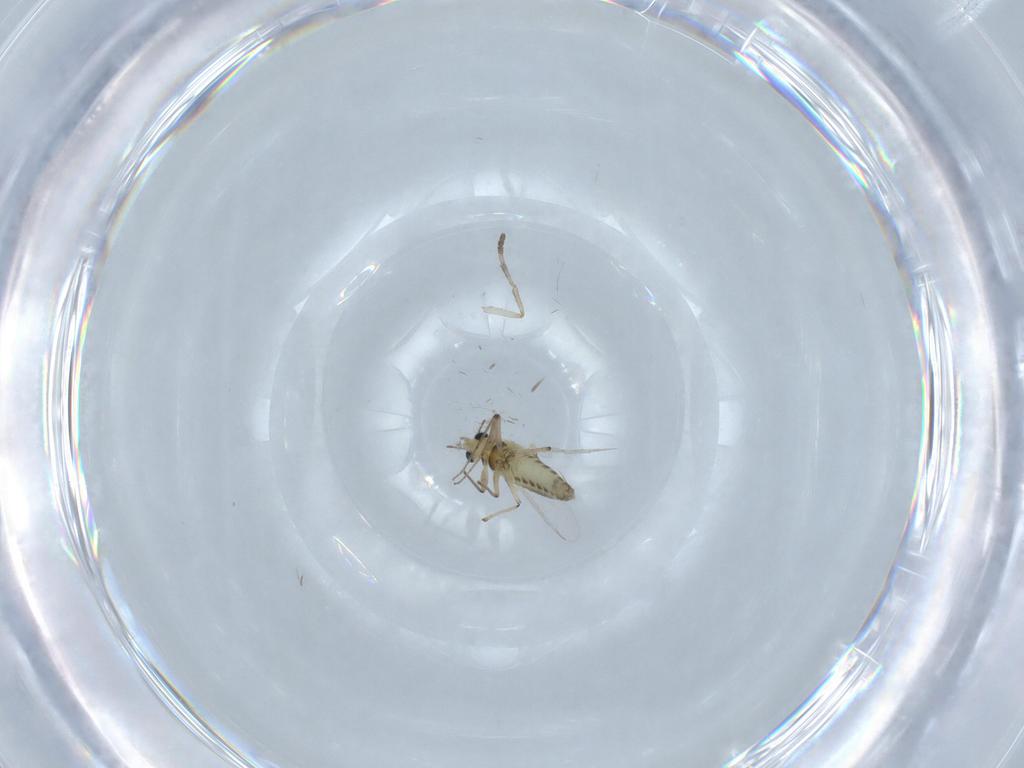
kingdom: Animalia
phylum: Arthropoda
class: Insecta
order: Diptera
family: Chironomidae
